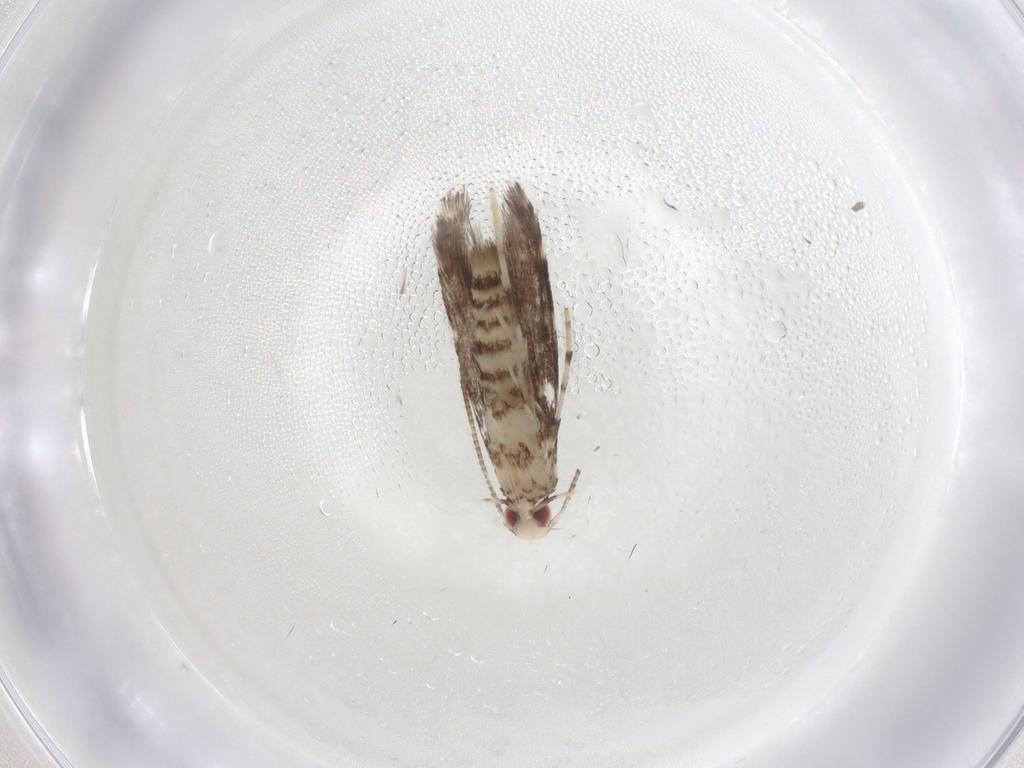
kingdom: Animalia
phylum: Arthropoda
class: Insecta
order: Lepidoptera
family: Gracillariidae
